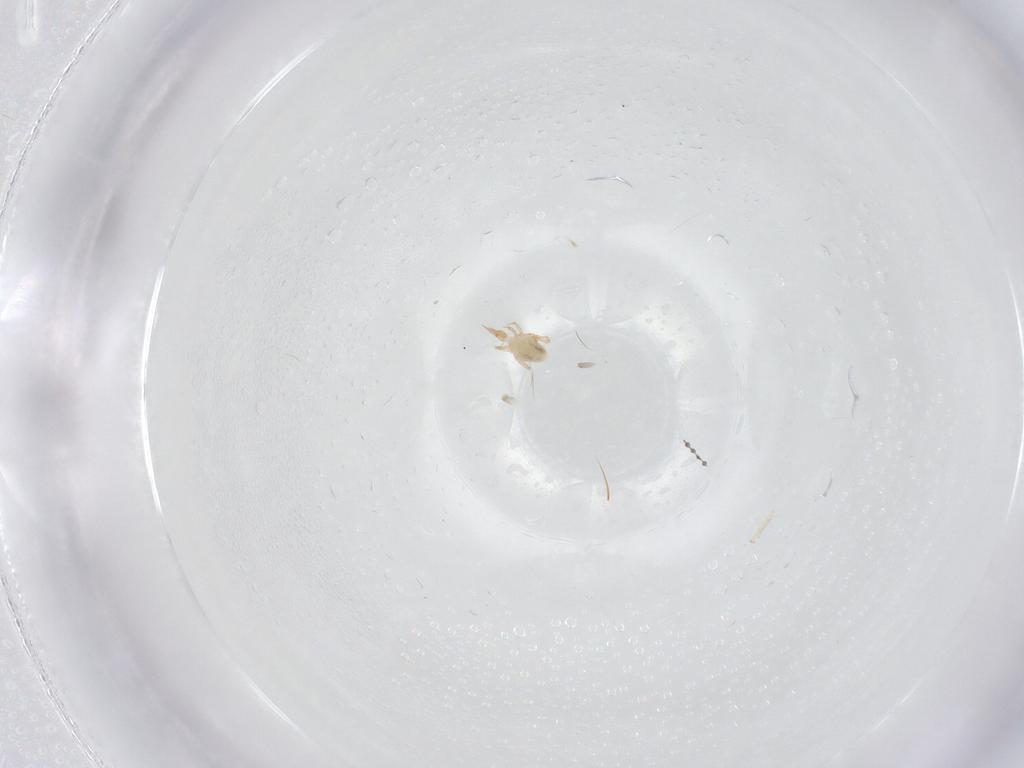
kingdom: Animalia
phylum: Arthropoda
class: Arachnida
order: Trombidiformes
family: Cunaxidae
